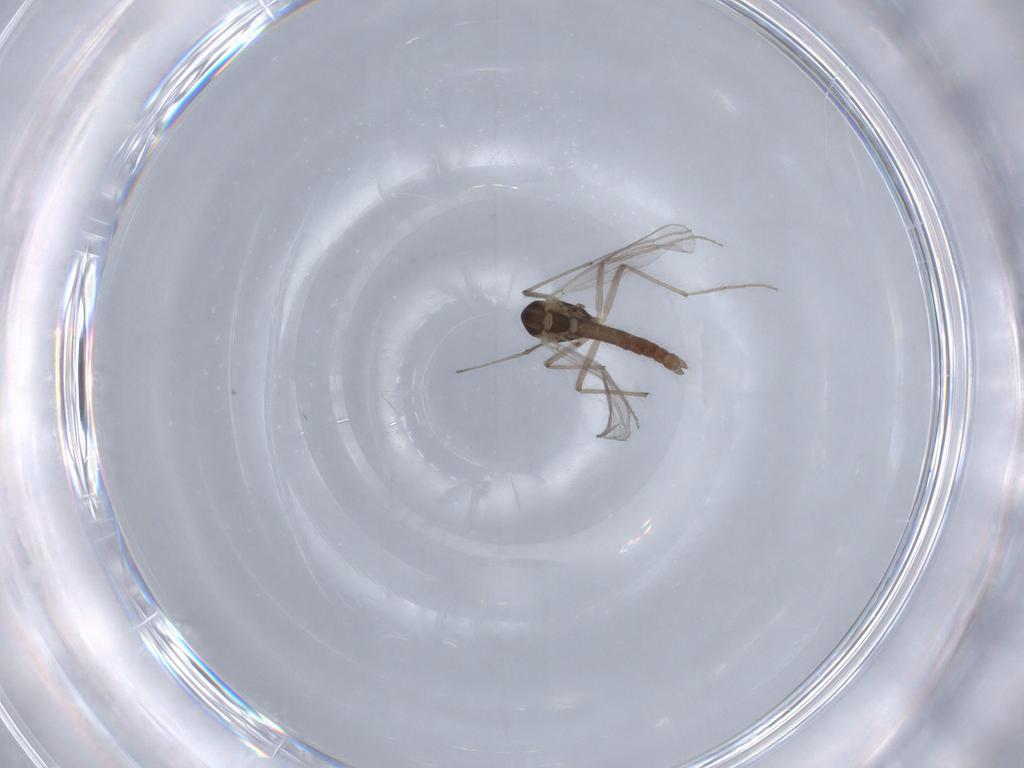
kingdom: Animalia
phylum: Arthropoda
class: Insecta
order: Diptera
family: Chironomidae
